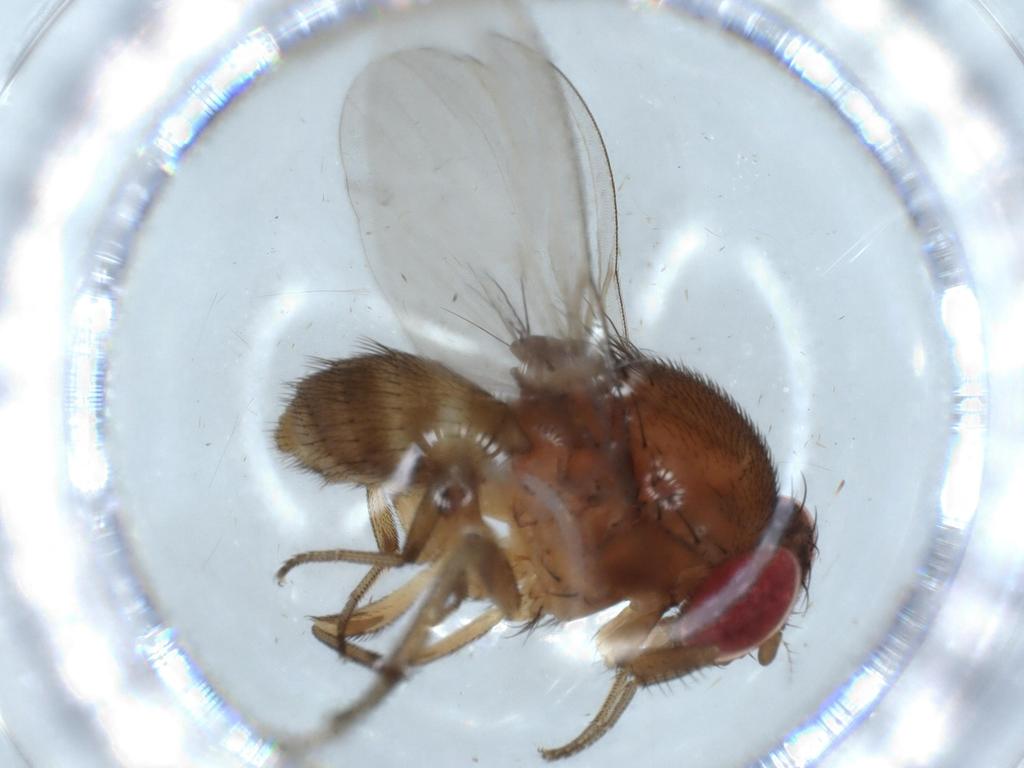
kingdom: Animalia
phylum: Arthropoda
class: Insecta
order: Diptera
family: Drosophilidae
